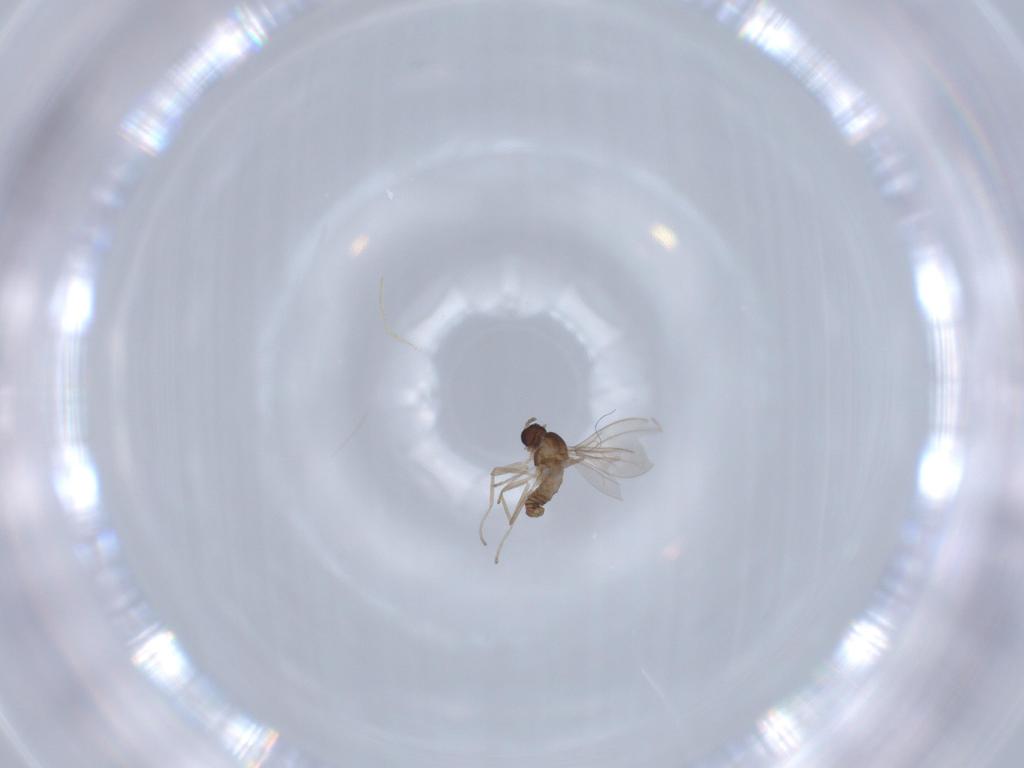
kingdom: Animalia
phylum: Arthropoda
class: Insecta
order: Diptera
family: Cecidomyiidae
